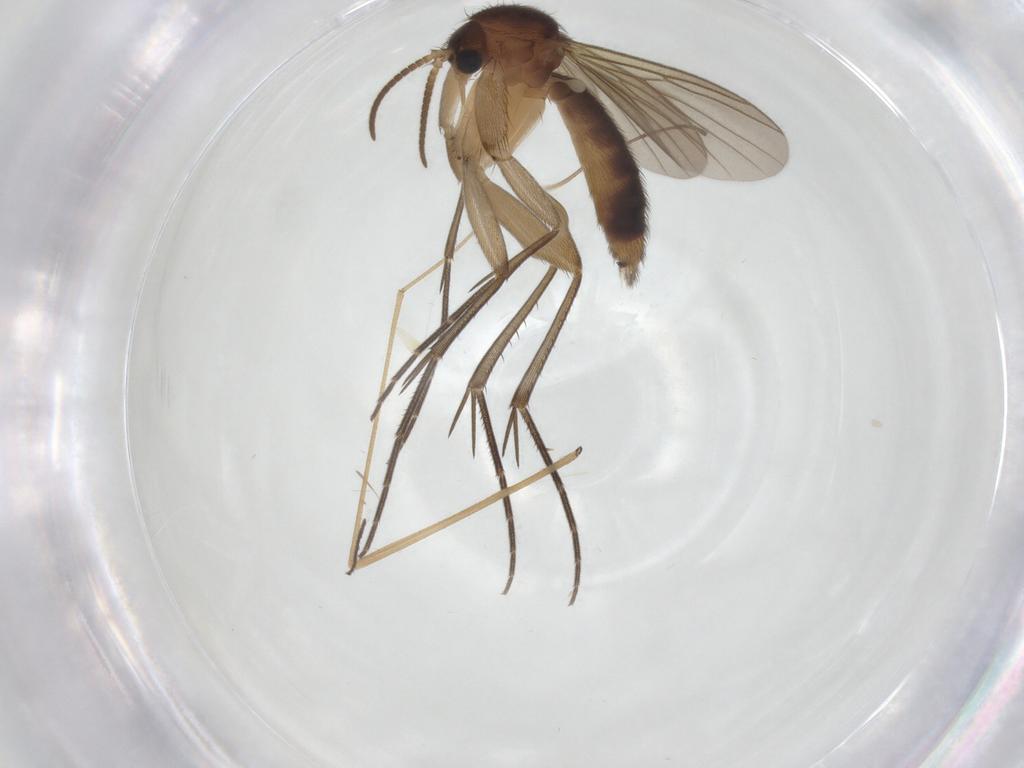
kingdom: Animalia
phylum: Arthropoda
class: Insecta
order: Diptera
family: Limoniidae
